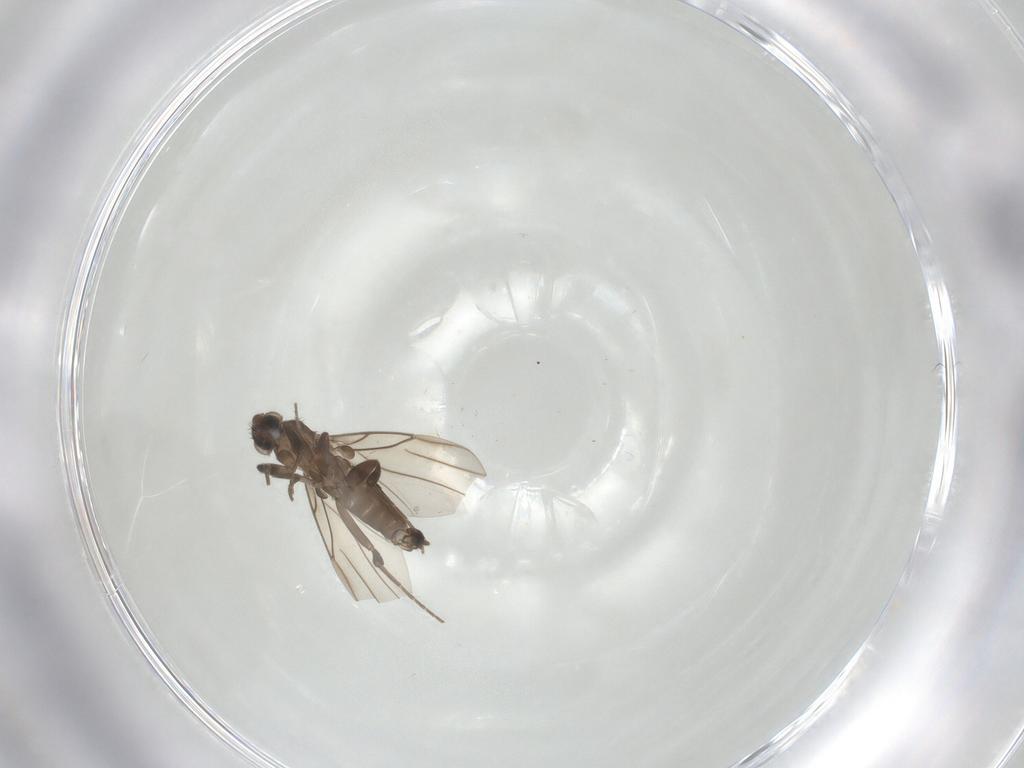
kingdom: Animalia
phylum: Arthropoda
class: Insecta
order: Diptera
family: Phoridae
